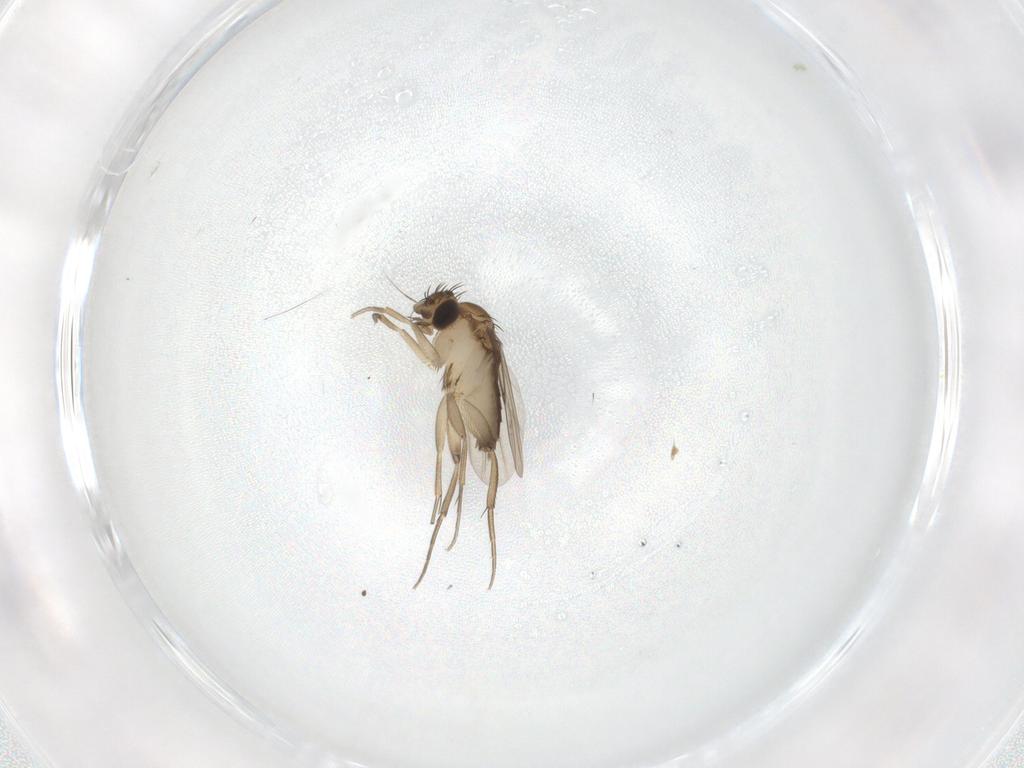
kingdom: Animalia
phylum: Arthropoda
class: Insecta
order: Diptera
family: Phoridae
